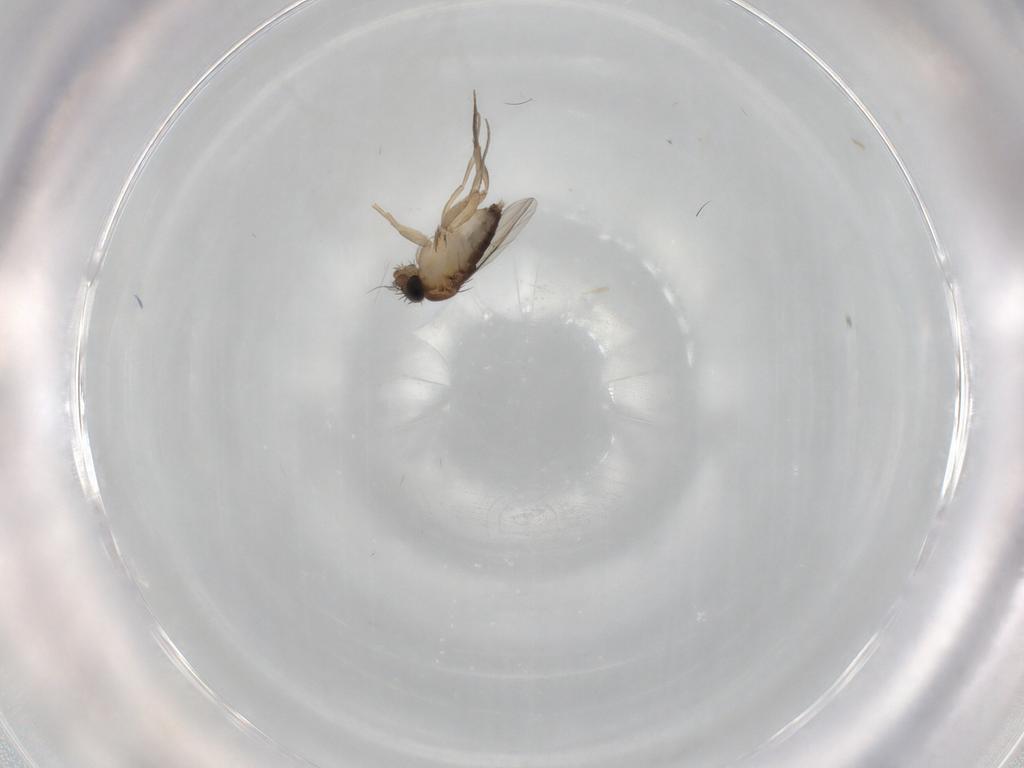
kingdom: Animalia
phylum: Arthropoda
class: Insecta
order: Diptera
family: Phoridae
